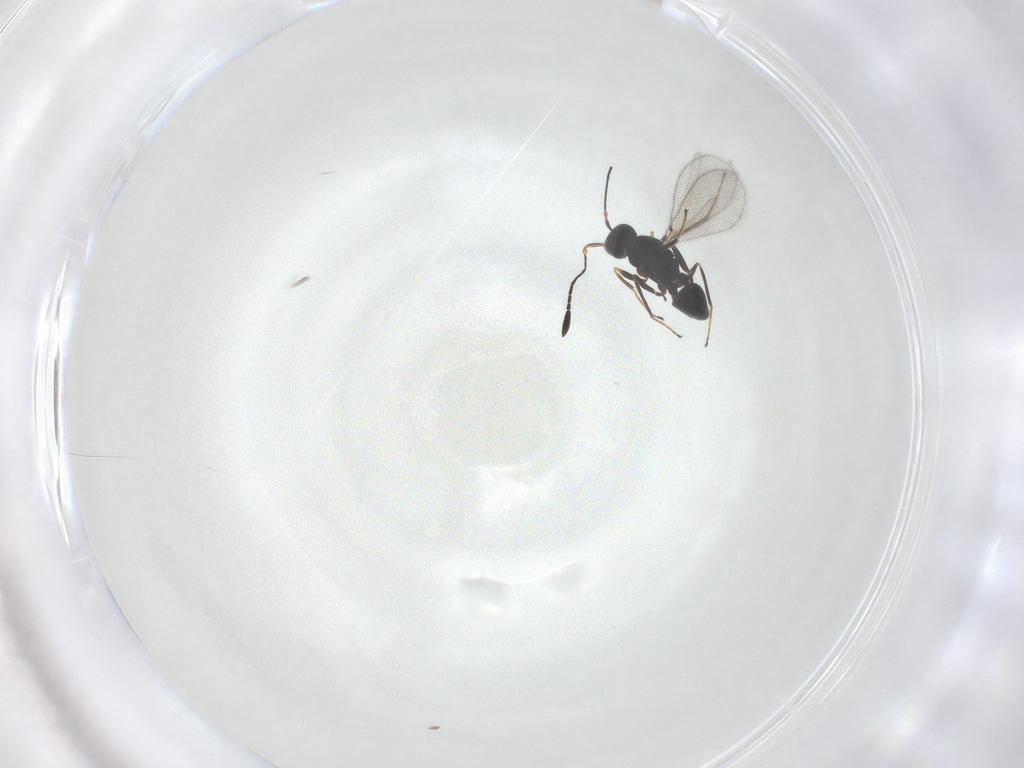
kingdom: Animalia
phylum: Arthropoda
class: Insecta
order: Hymenoptera
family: Mymaridae
